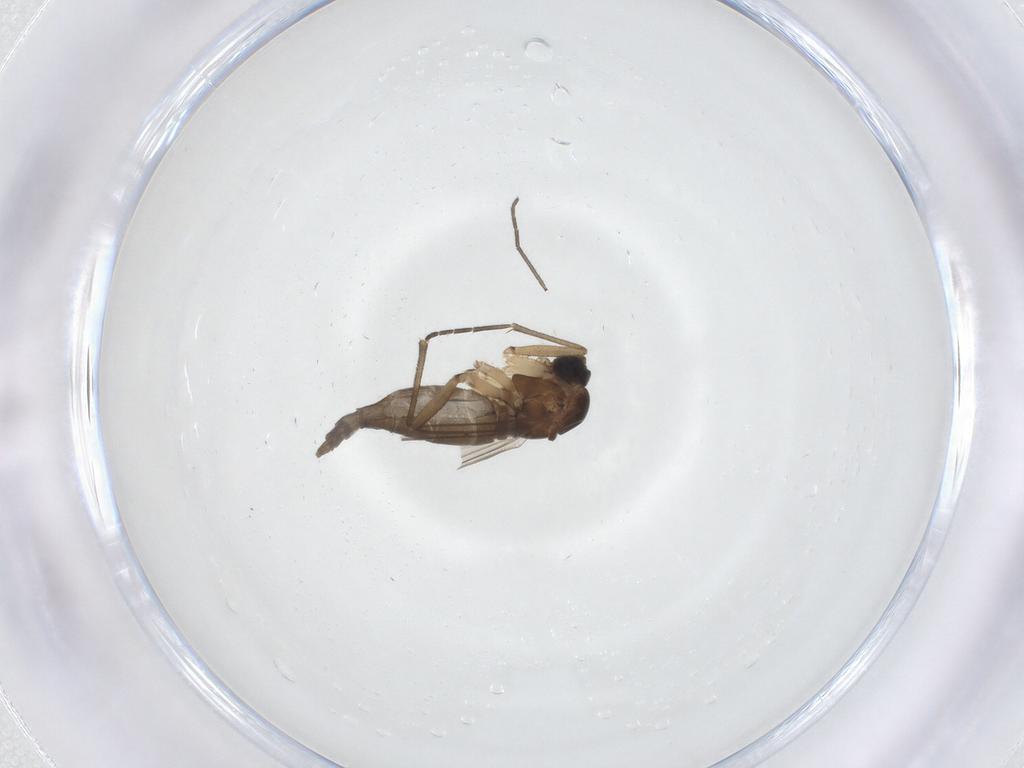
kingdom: Animalia
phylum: Arthropoda
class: Insecta
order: Diptera
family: Sciaridae
